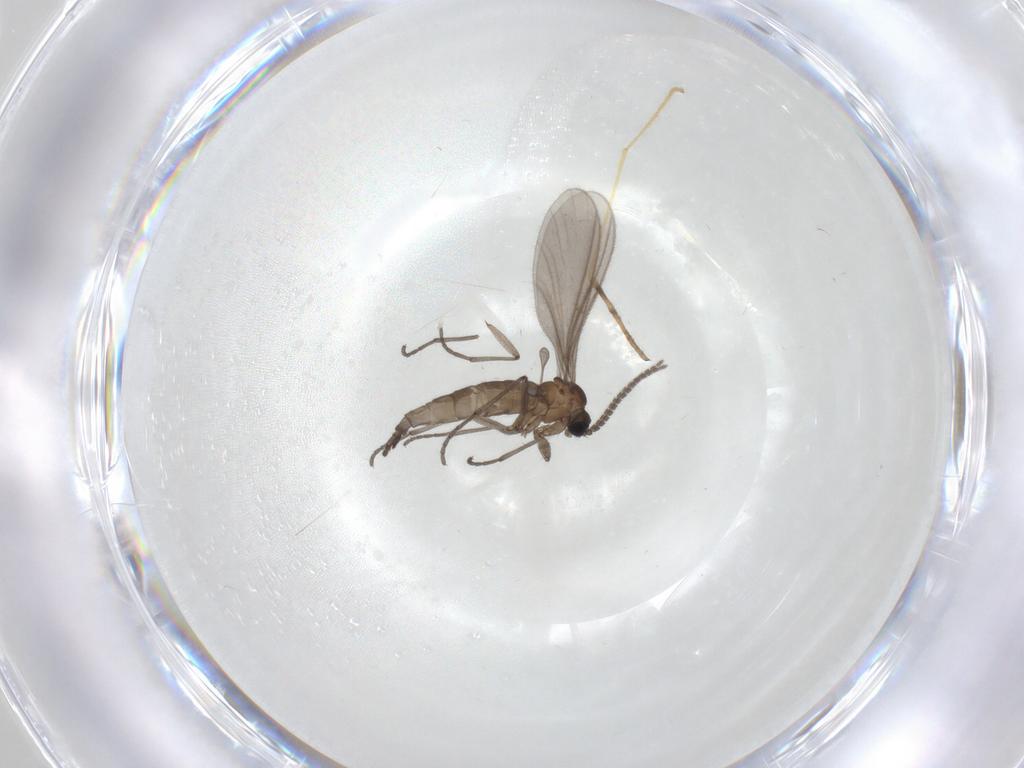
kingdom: Animalia
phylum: Arthropoda
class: Insecta
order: Diptera
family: Sciaridae
